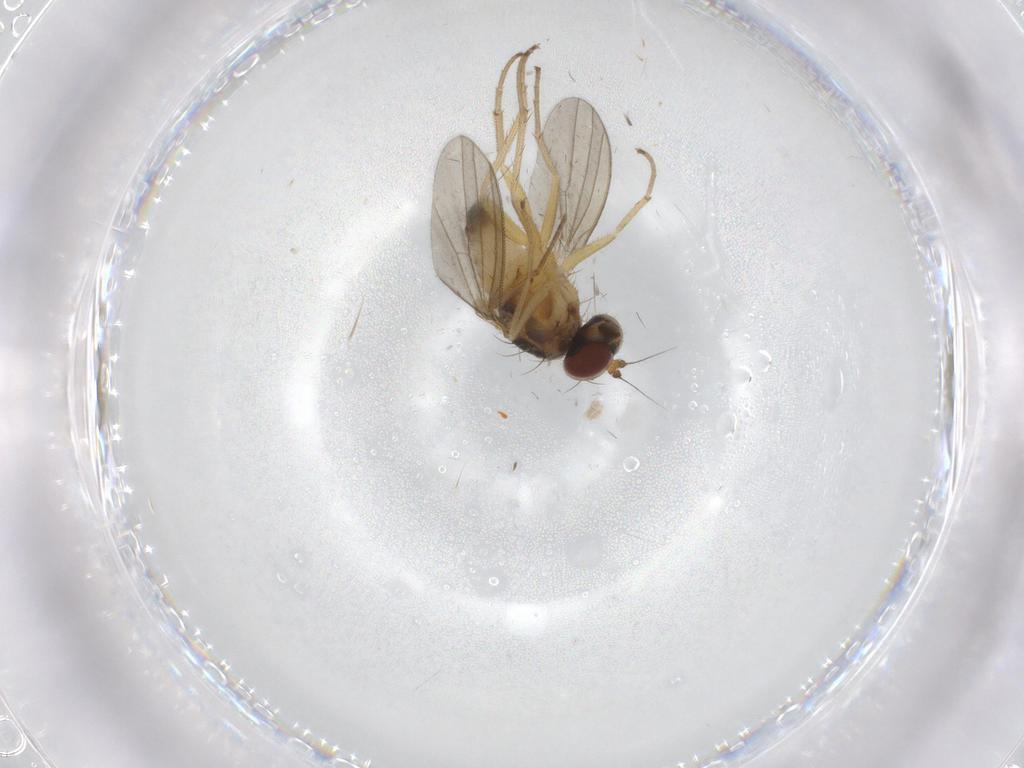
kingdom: Animalia
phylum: Arthropoda
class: Insecta
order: Diptera
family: Dolichopodidae
